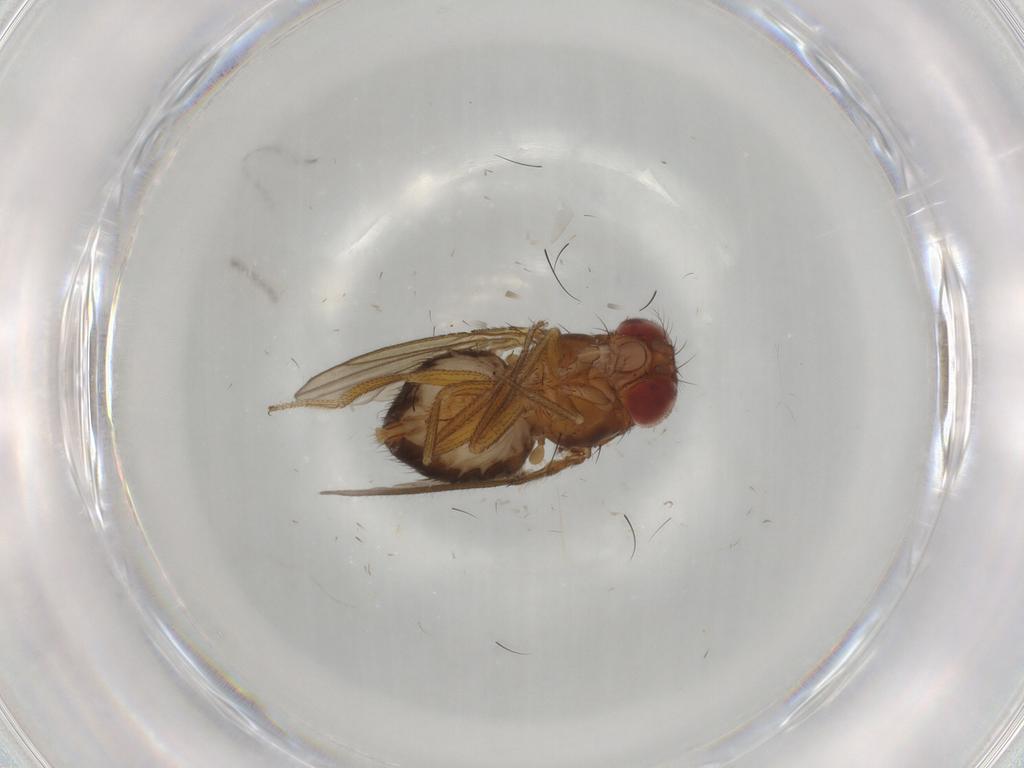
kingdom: Animalia
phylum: Arthropoda
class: Insecta
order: Diptera
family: Drosophilidae
